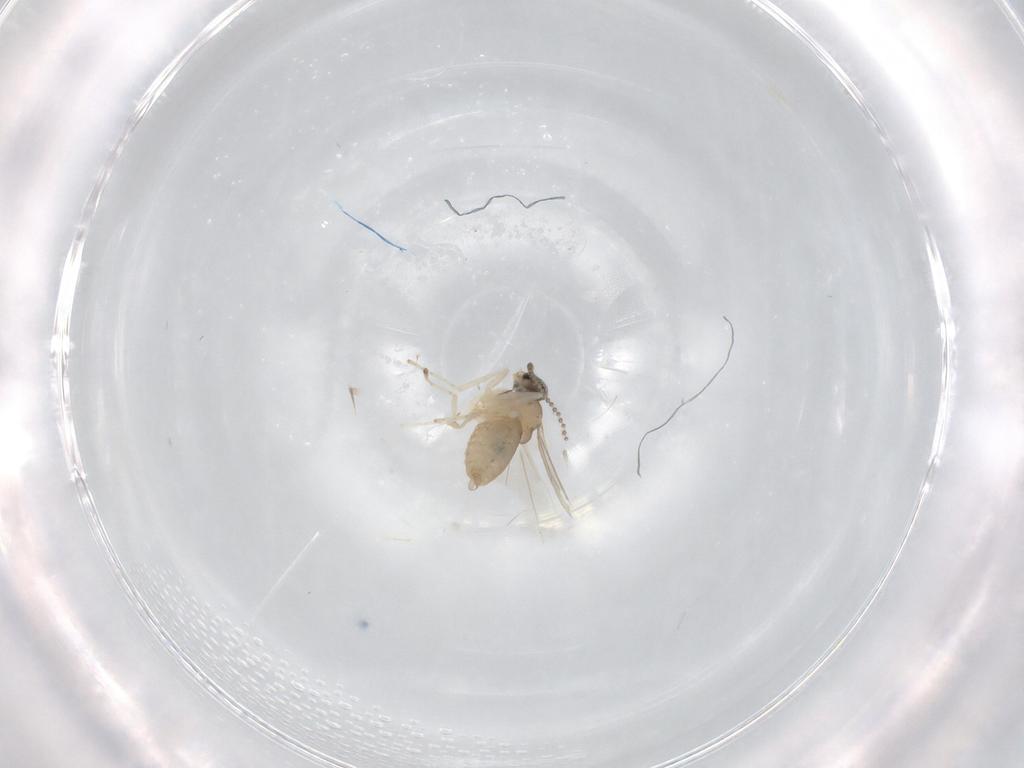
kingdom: Animalia
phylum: Arthropoda
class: Insecta
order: Diptera
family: Cecidomyiidae
